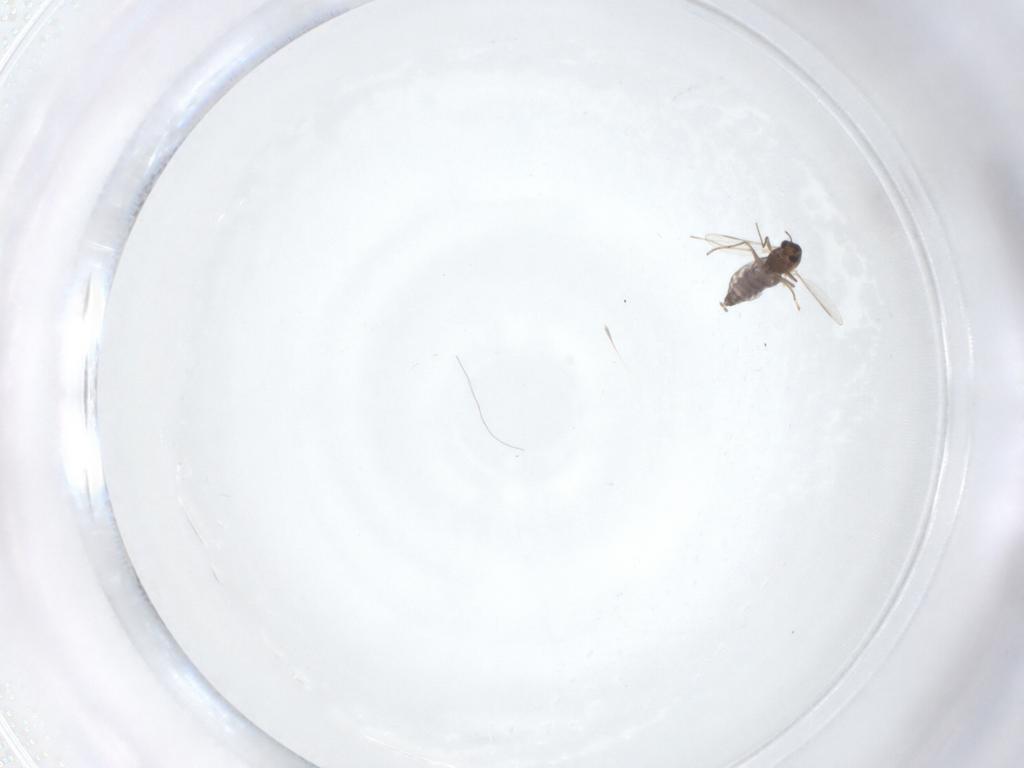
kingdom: Animalia
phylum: Arthropoda
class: Insecta
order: Diptera
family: Chironomidae
